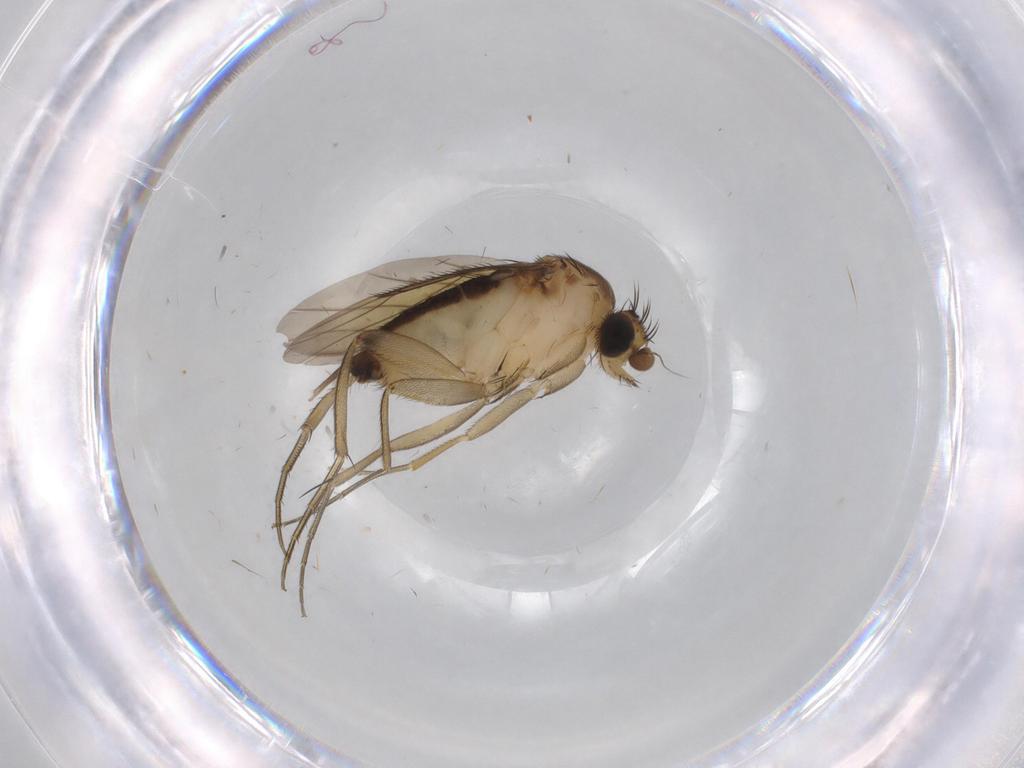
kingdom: Animalia
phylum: Arthropoda
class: Insecta
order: Diptera
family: Phoridae
